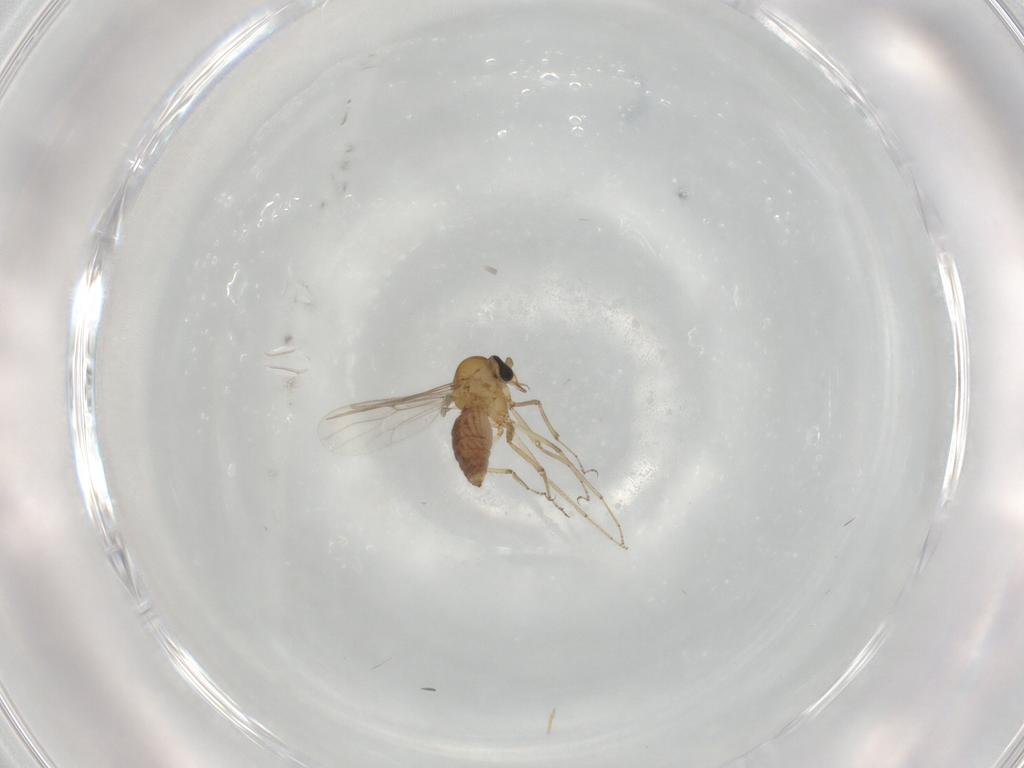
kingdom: Animalia
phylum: Arthropoda
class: Insecta
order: Diptera
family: Ceratopogonidae
